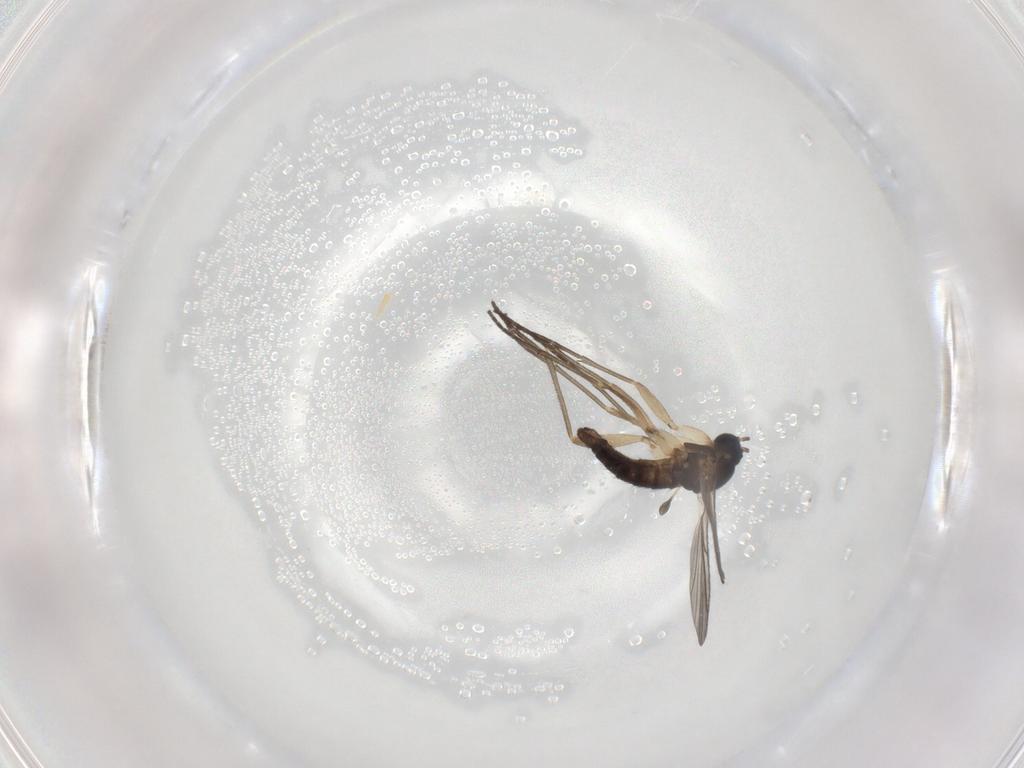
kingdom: Animalia
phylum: Arthropoda
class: Insecta
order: Diptera
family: Sciaridae
